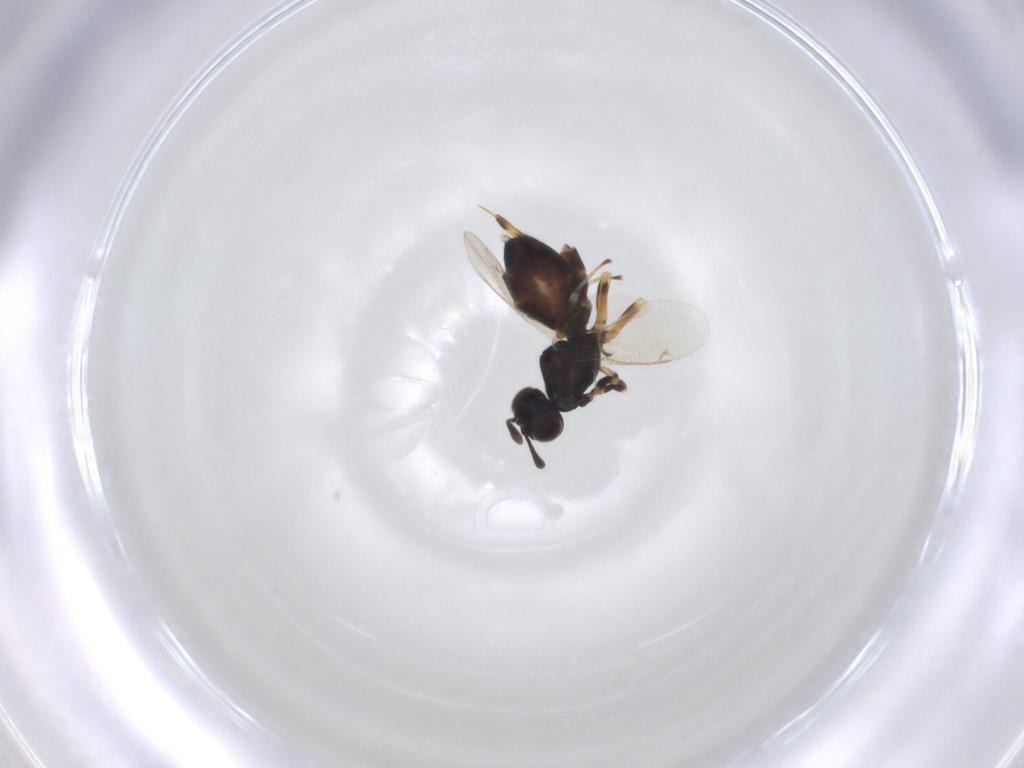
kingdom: Animalia
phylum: Arthropoda
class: Insecta
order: Hymenoptera
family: Eupelmidae
